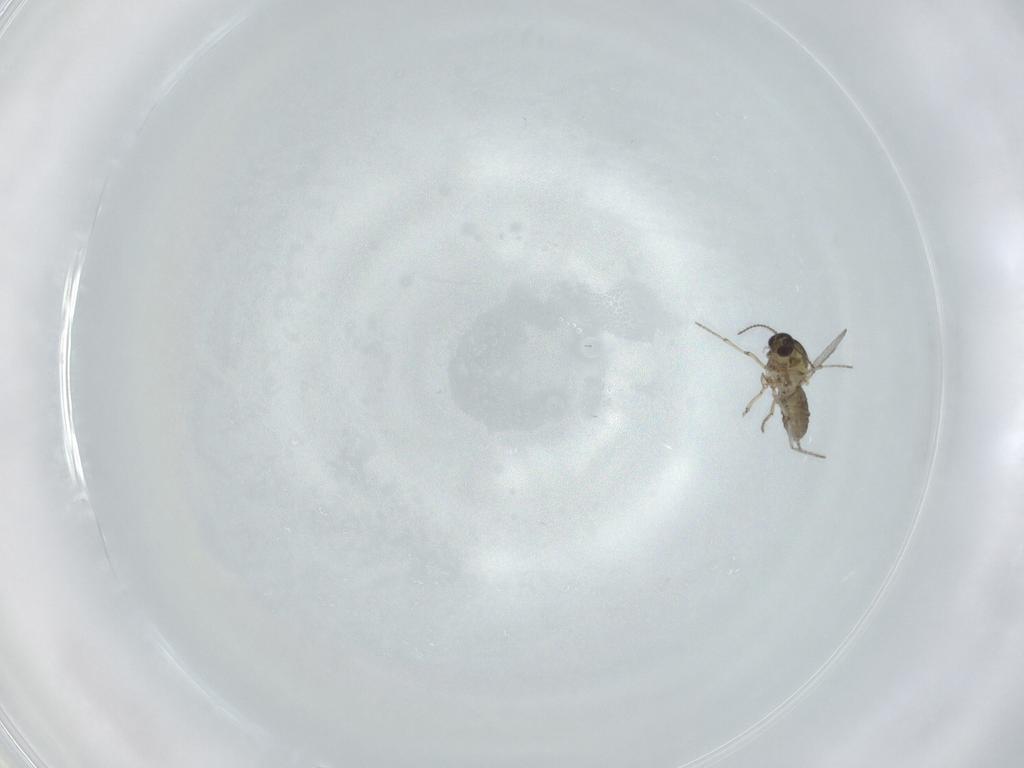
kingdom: Animalia
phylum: Arthropoda
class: Insecta
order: Diptera
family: Ceratopogonidae
